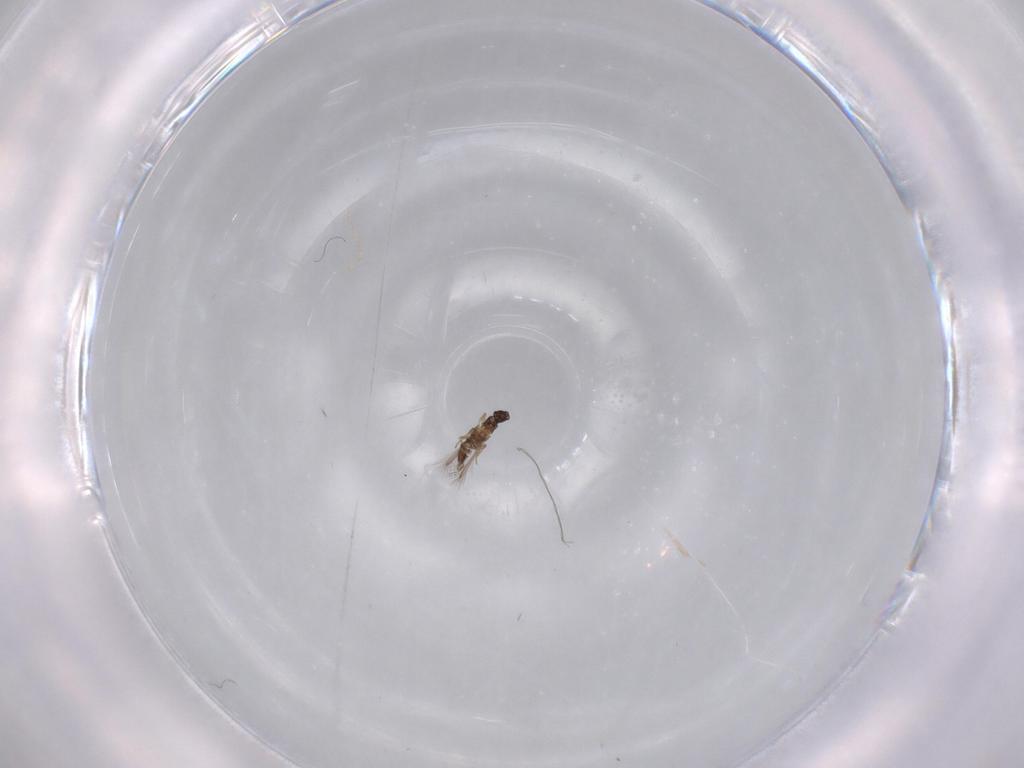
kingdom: Animalia
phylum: Arthropoda
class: Insecta
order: Hymenoptera
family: Mymaridae
